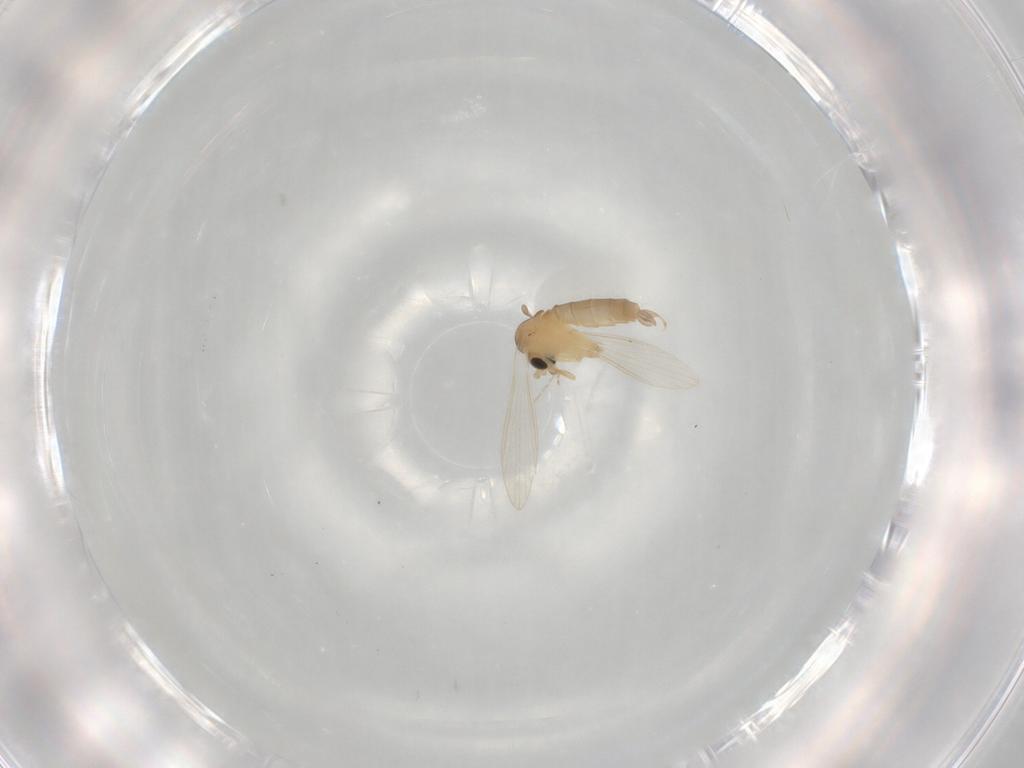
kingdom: Animalia
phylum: Arthropoda
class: Insecta
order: Diptera
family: Psychodidae
